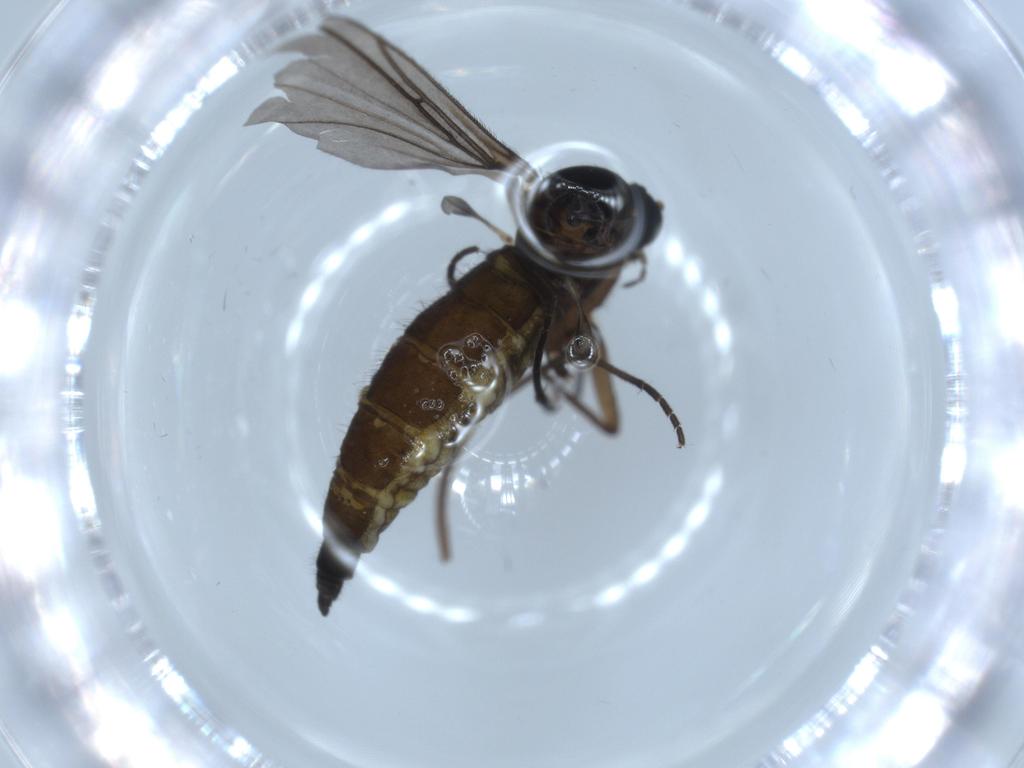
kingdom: Animalia
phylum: Arthropoda
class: Insecta
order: Diptera
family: Sciaridae
